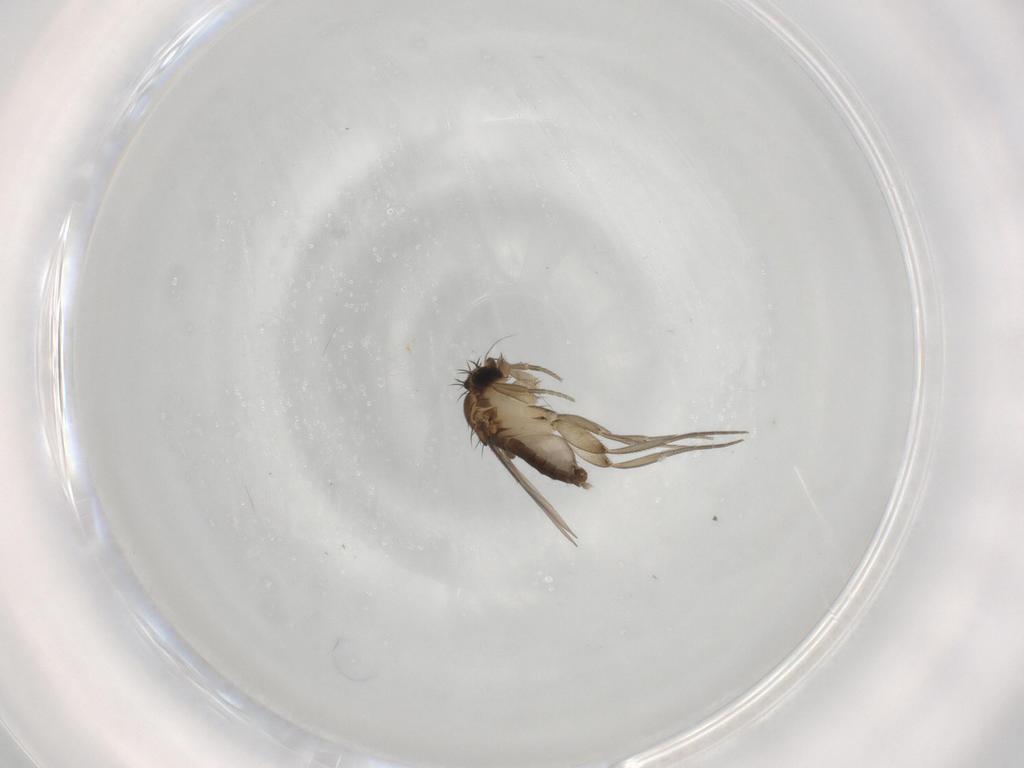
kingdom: Animalia
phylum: Arthropoda
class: Insecta
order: Diptera
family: Phoridae
